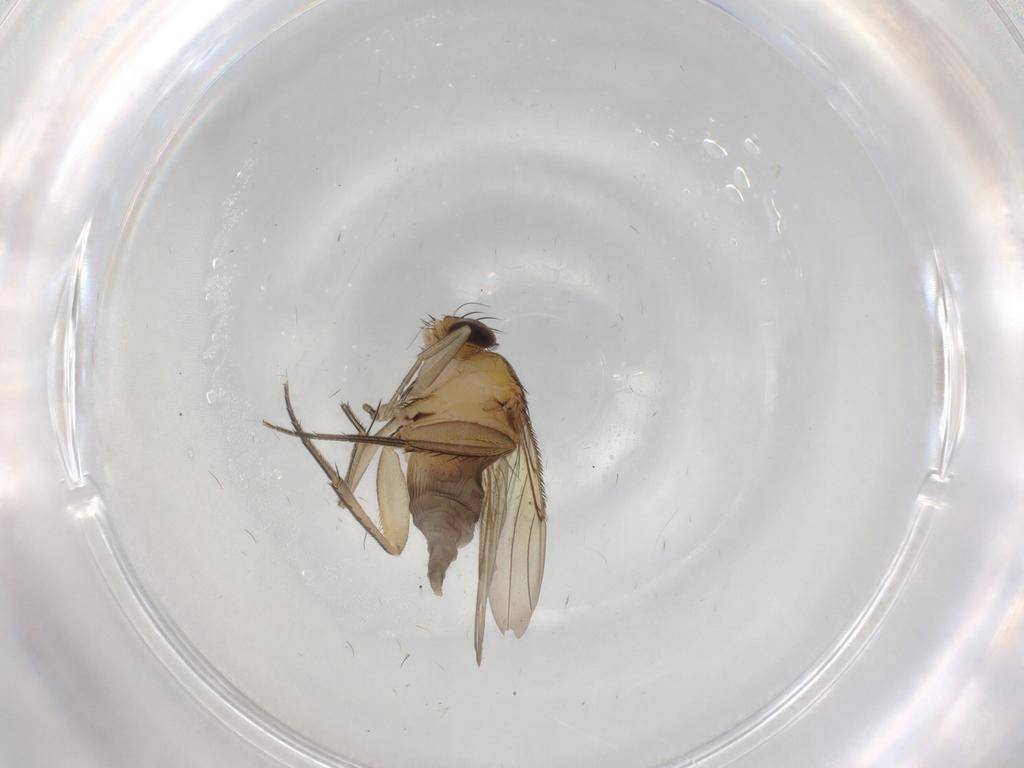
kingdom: Animalia
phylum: Arthropoda
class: Insecta
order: Diptera
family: Phoridae
